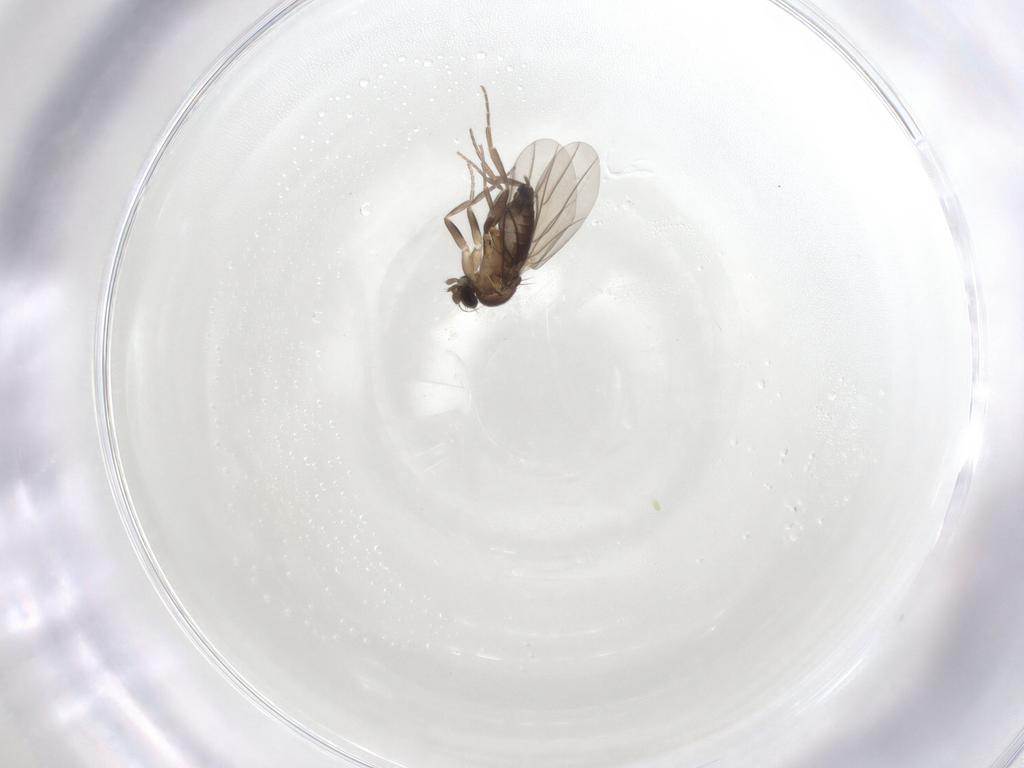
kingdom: Animalia
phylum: Arthropoda
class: Insecta
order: Diptera
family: Phoridae
